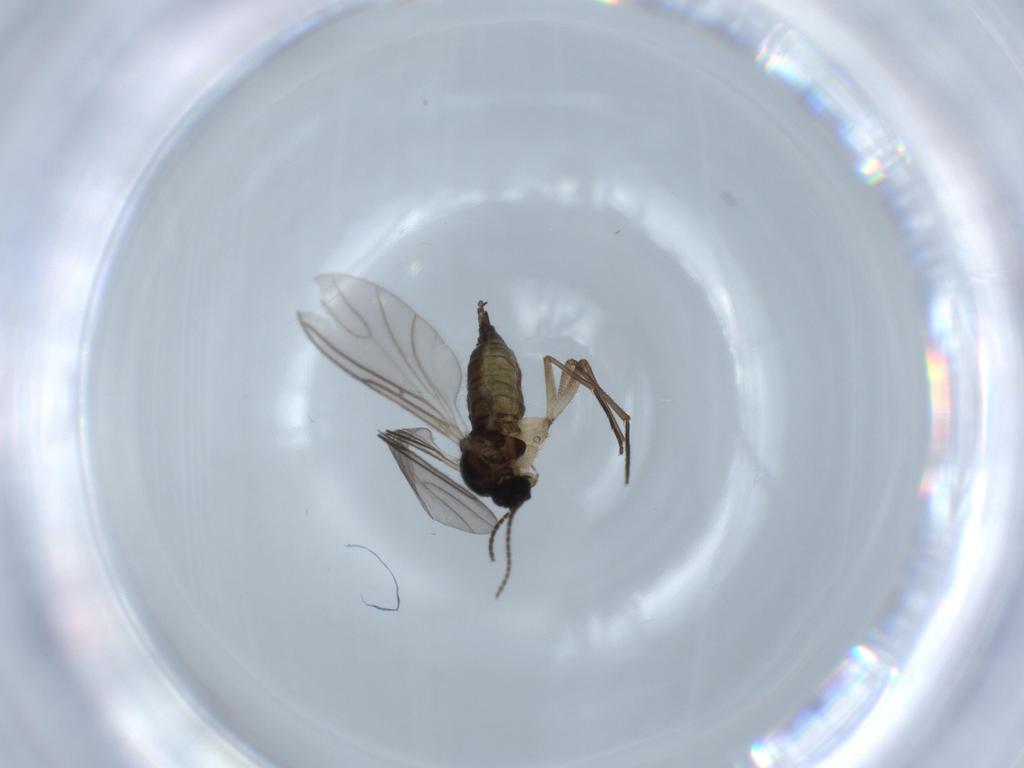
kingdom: Animalia
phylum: Arthropoda
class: Insecta
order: Diptera
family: Sciaridae
